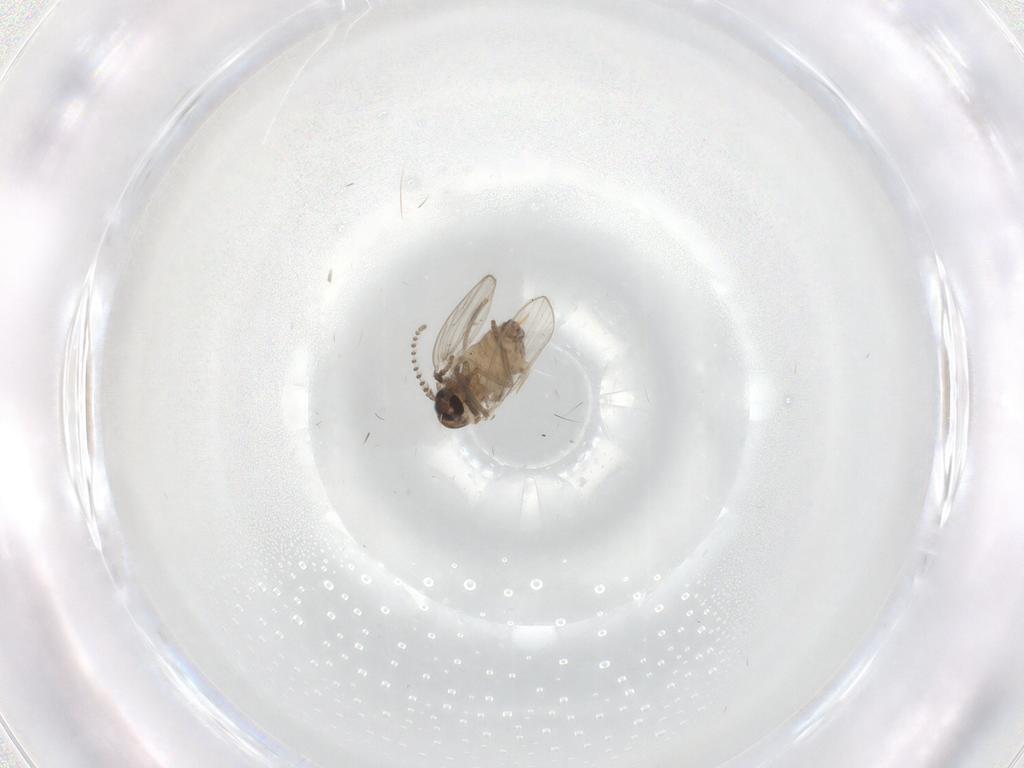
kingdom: Animalia
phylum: Arthropoda
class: Insecta
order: Diptera
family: Psychodidae
